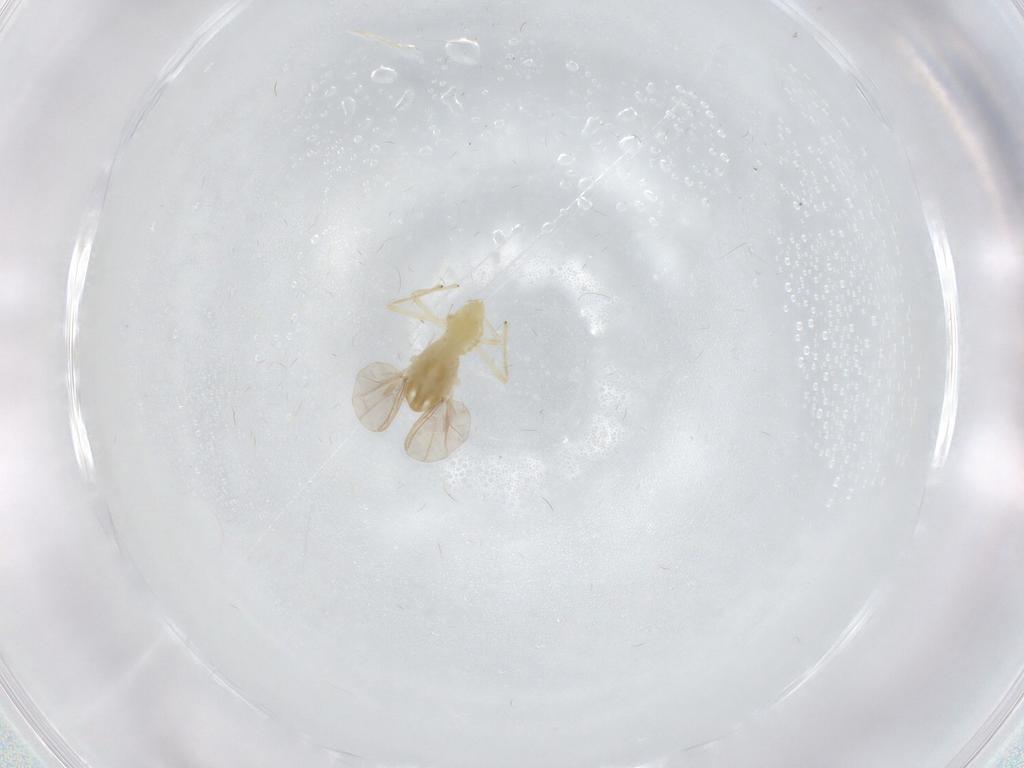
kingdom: Animalia
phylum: Arthropoda
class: Insecta
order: Diptera
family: Chironomidae
